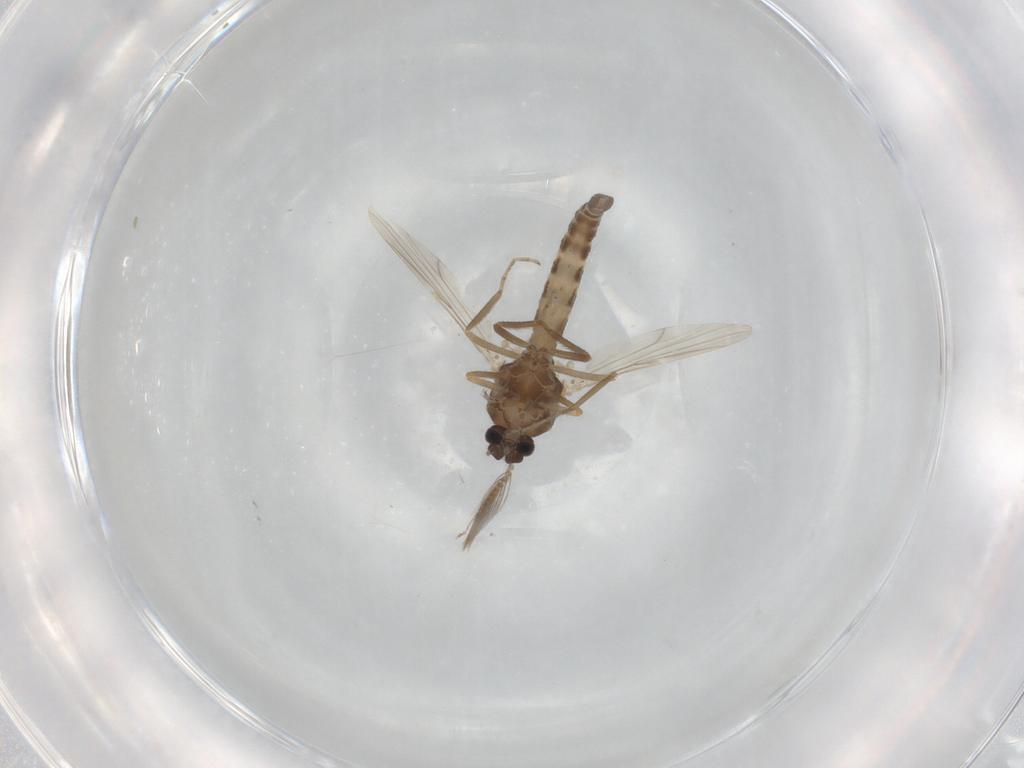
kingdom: Animalia
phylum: Arthropoda
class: Insecta
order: Diptera
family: Ceratopogonidae
